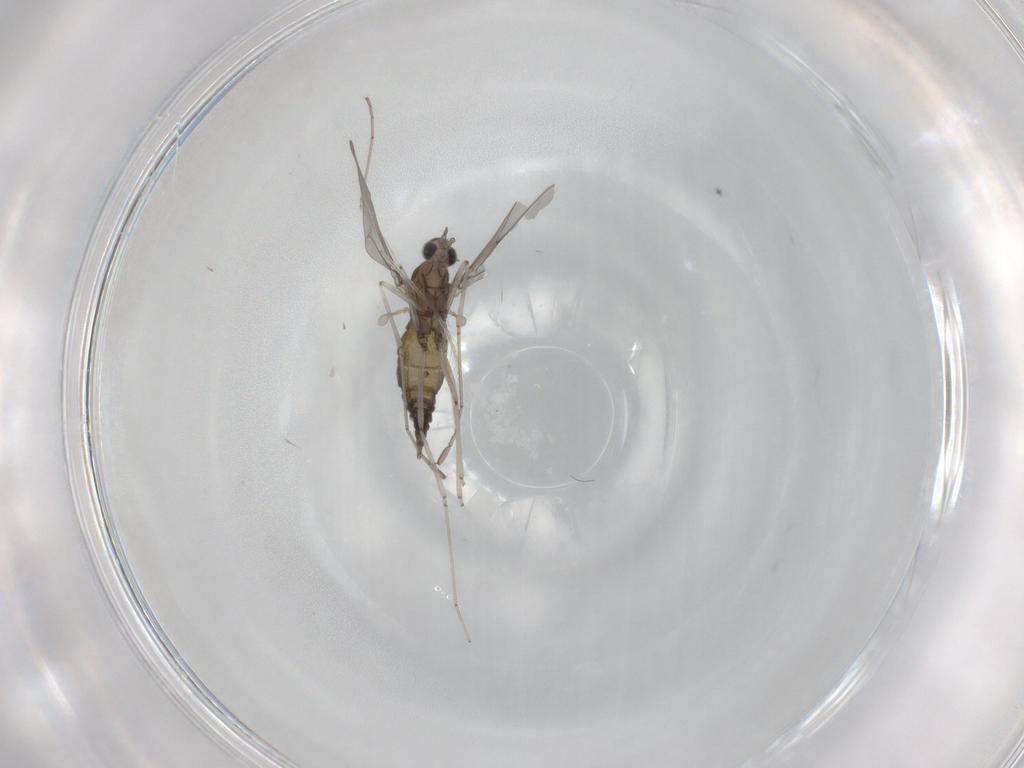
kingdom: Animalia
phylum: Arthropoda
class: Insecta
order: Diptera
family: Cecidomyiidae
